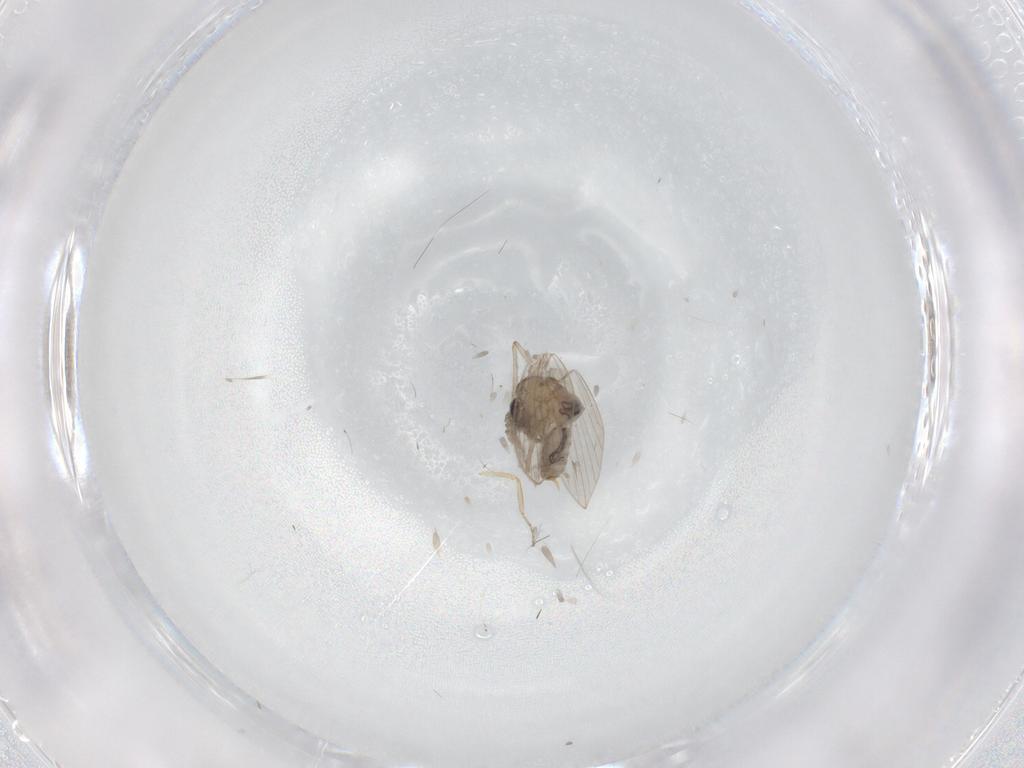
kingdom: Animalia
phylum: Arthropoda
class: Insecta
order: Diptera
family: Psychodidae
